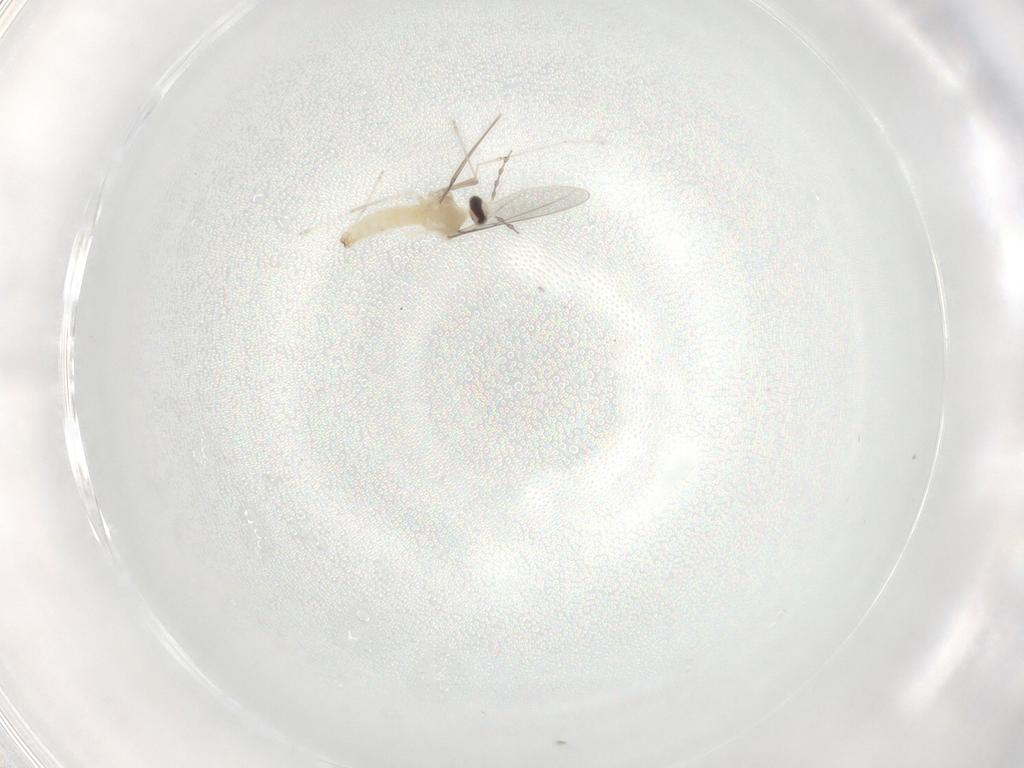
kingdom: Animalia
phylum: Arthropoda
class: Insecta
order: Diptera
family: Cecidomyiidae
